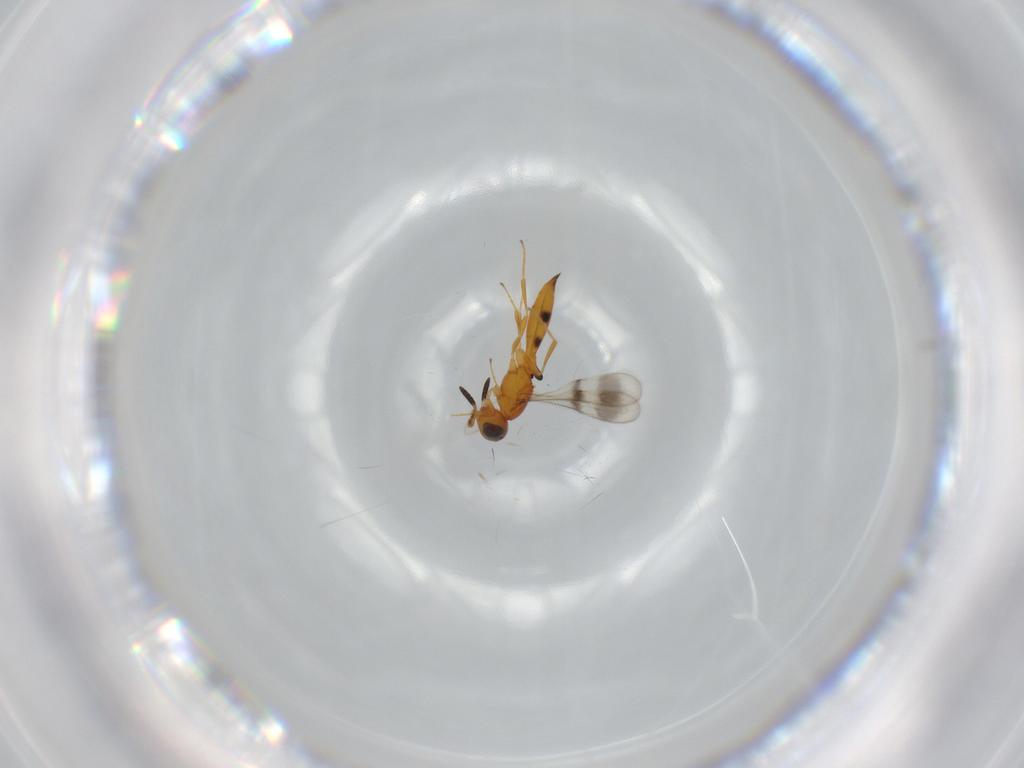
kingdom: Animalia
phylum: Arthropoda
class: Insecta
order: Hymenoptera
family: Scelionidae
